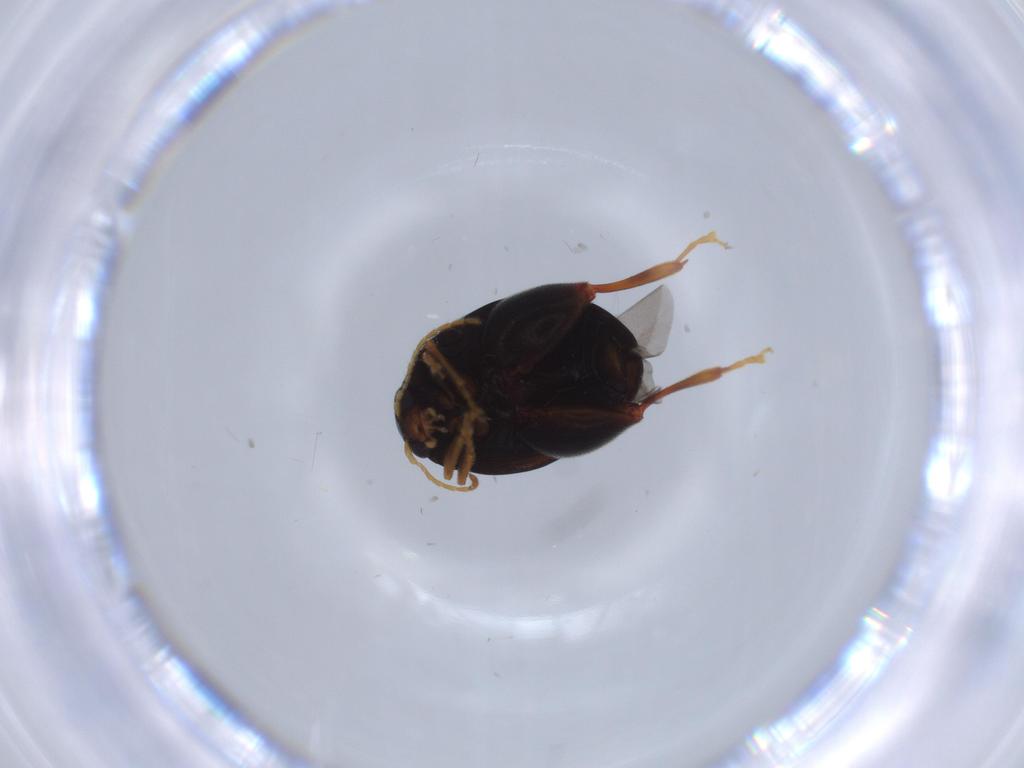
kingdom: Animalia
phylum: Arthropoda
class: Insecta
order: Coleoptera
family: Chrysomelidae
